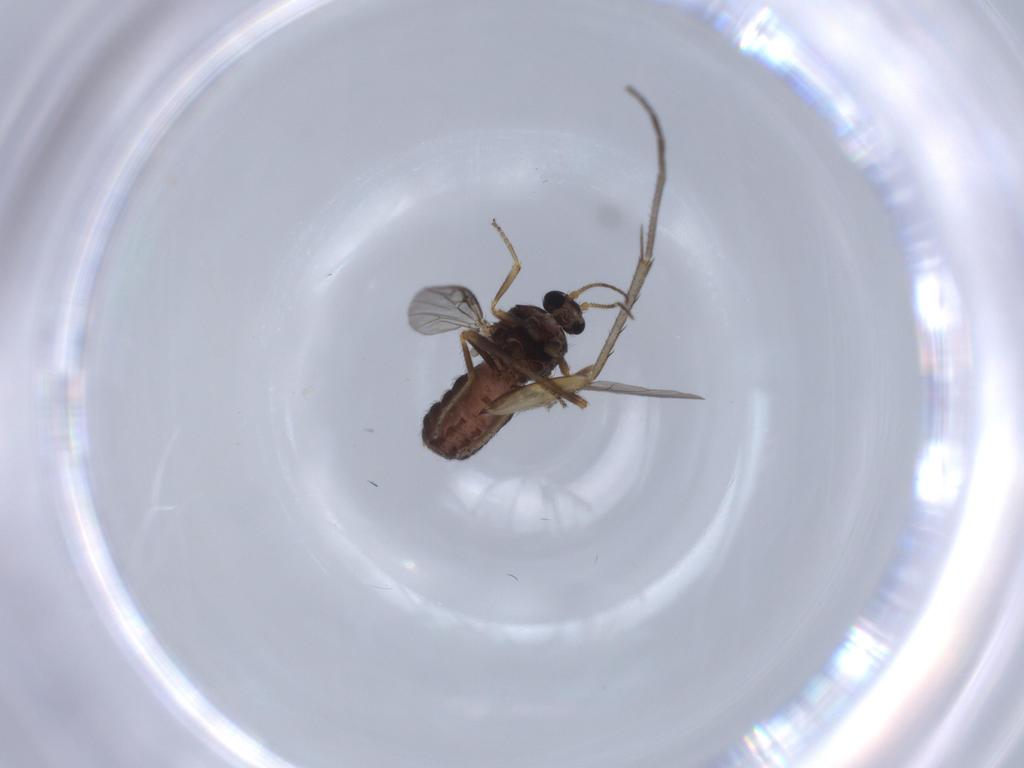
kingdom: Animalia
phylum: Arthropoda
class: Insecta
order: Diptera
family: Ceratopogonidae
